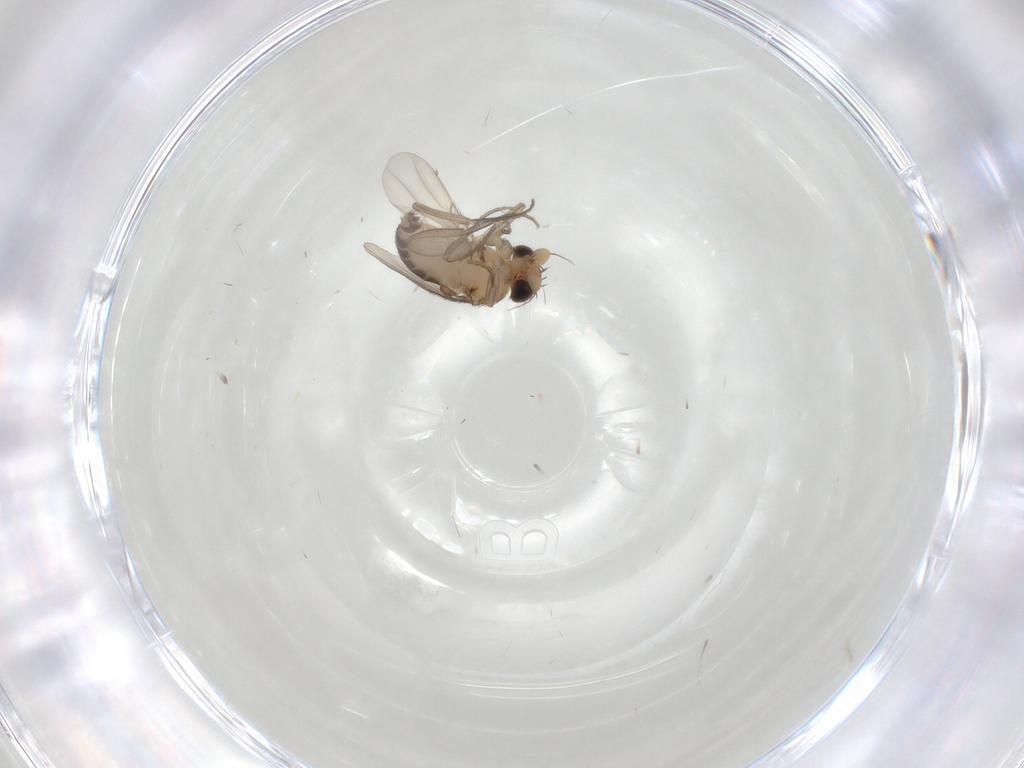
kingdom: Animalia
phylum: Arthropoda
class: Insecta
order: Diptera
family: Phoridae
